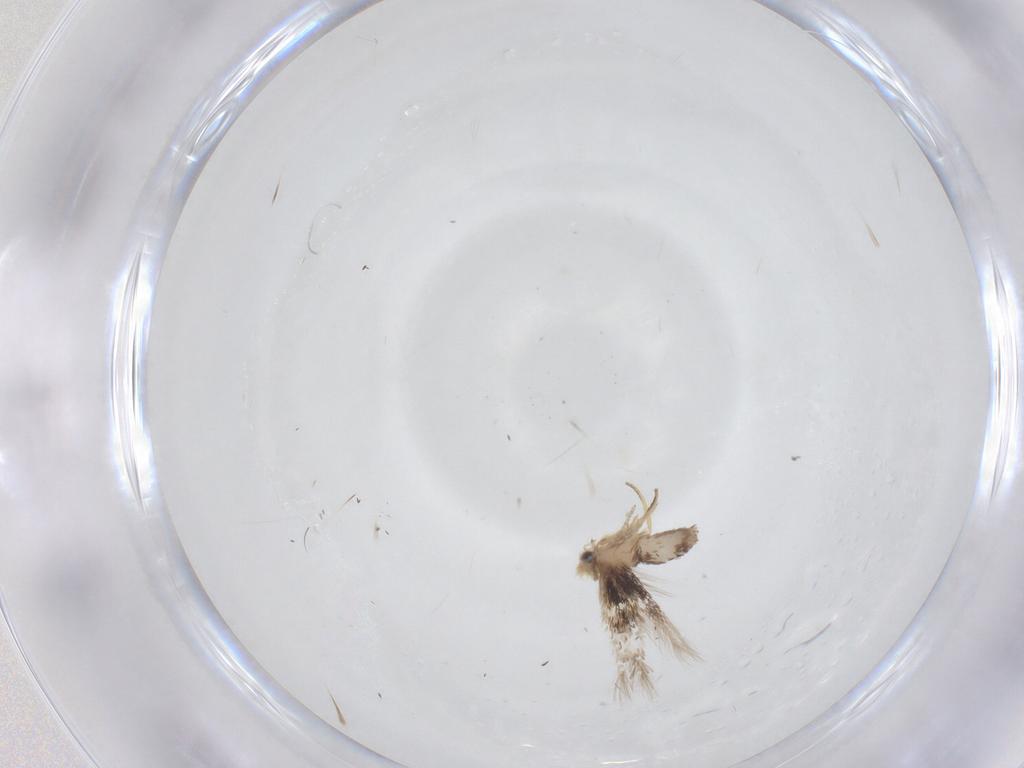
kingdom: Animalia
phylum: Arthropoda
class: Insecta
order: Lepidoptera
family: Nepticulidae
